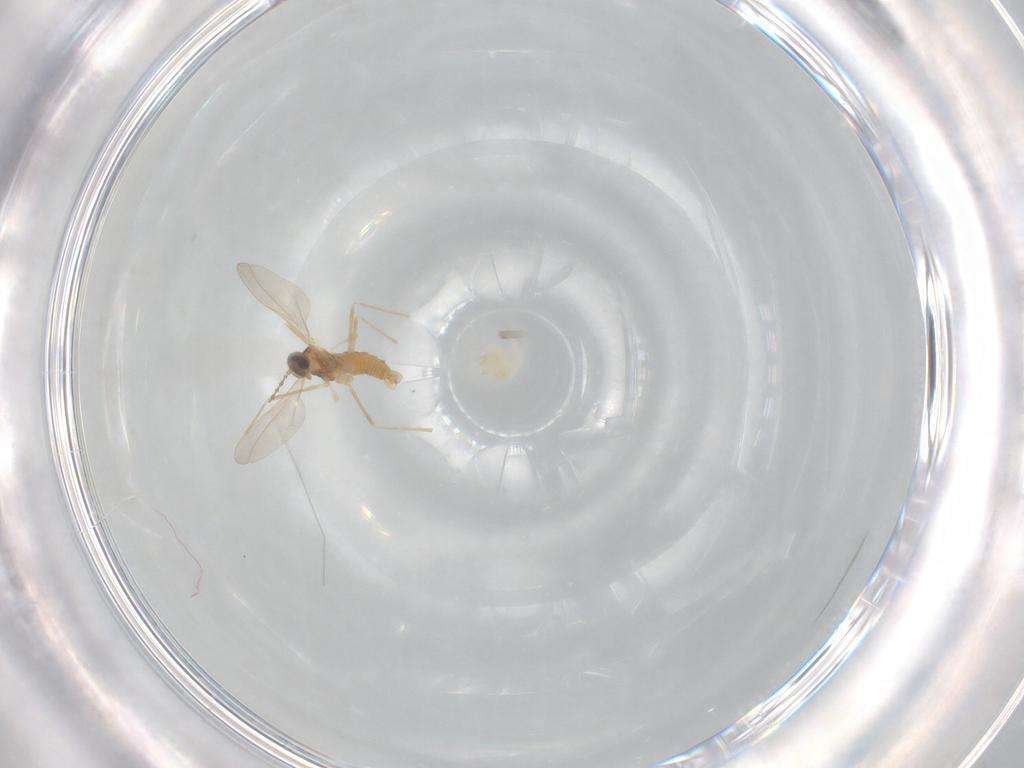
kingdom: Animalia
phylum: Arthropoda
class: Insecta
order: Diptera
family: Cecidomyiidae
